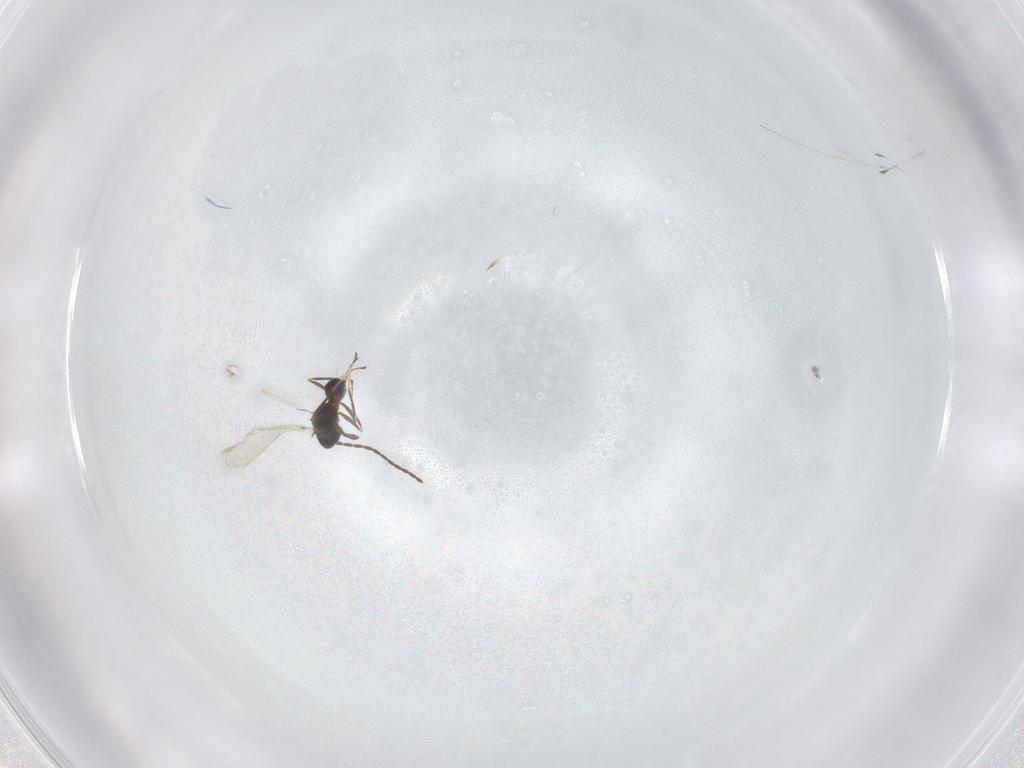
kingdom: Animalia
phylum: Arthropoda
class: Insecta
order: Hymenoptera
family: Mymaridae
